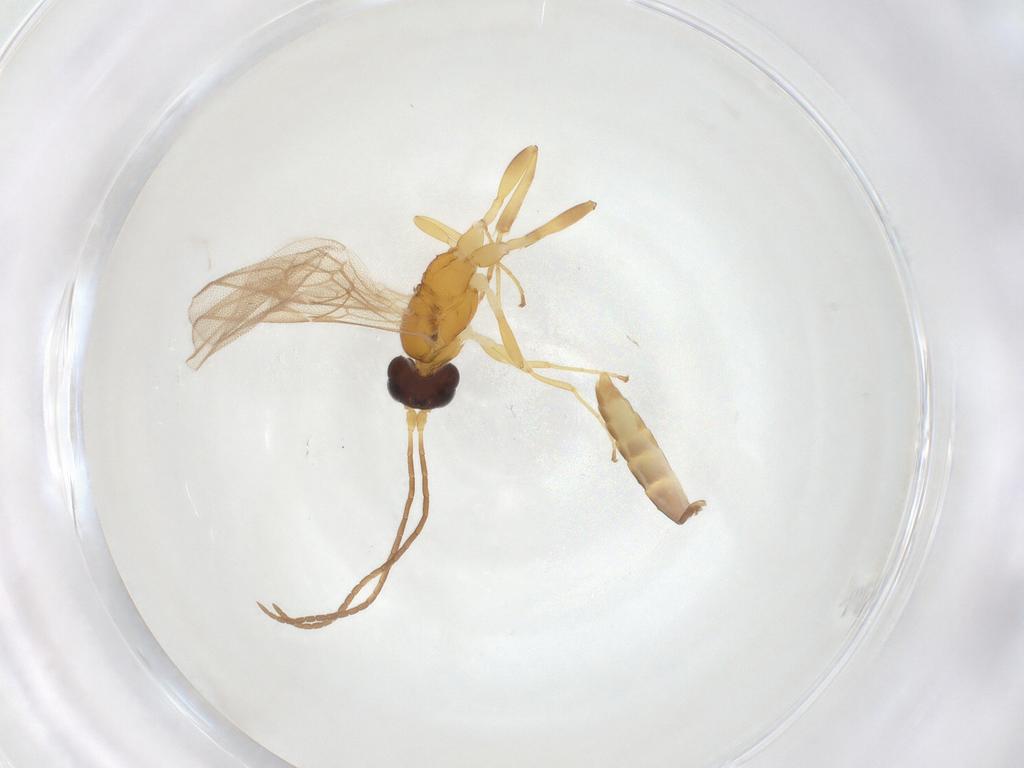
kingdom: Animalia
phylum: Arthropoda
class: Insecta
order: Hymenoptera
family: Ichneumonidae
